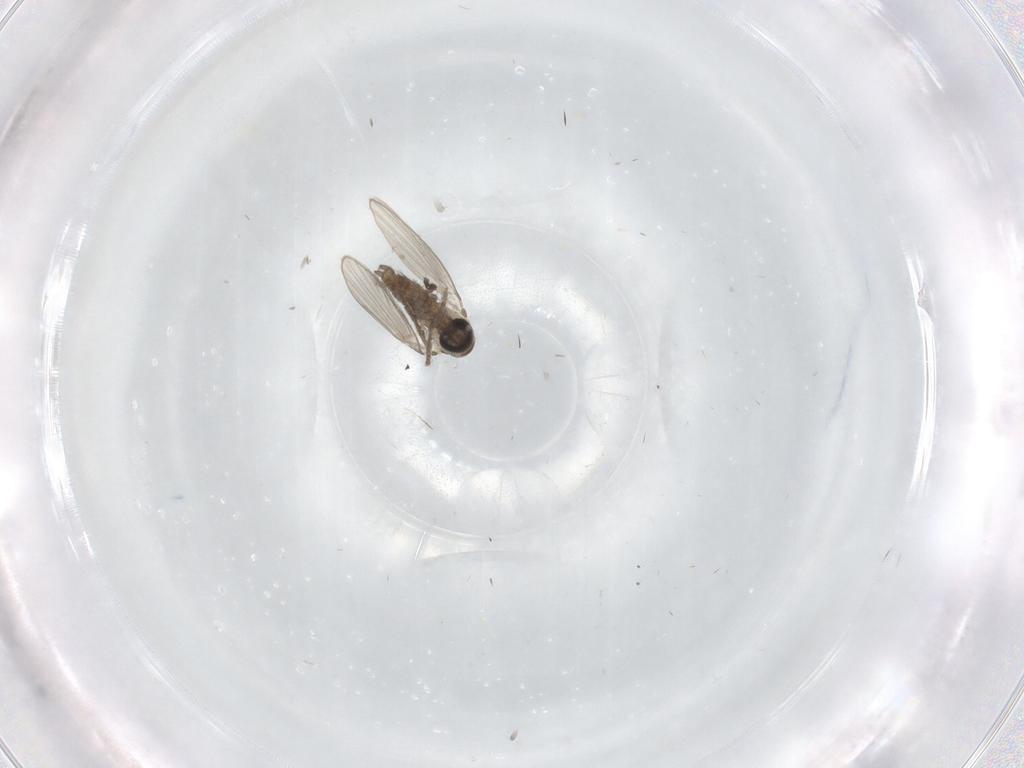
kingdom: Animalia
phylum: Arthropoda
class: Insecta
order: Diptera
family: Psychodidae
